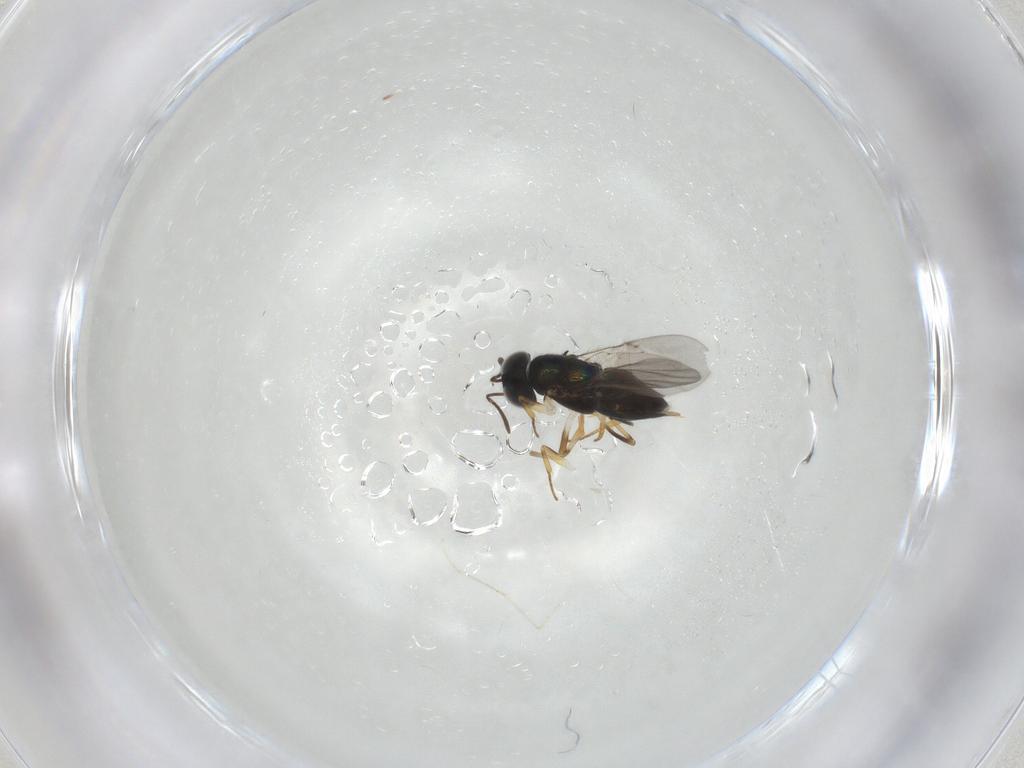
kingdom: Animalia
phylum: Arthropoda
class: Insecta
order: Hymenoptera
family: Encyrtidae
